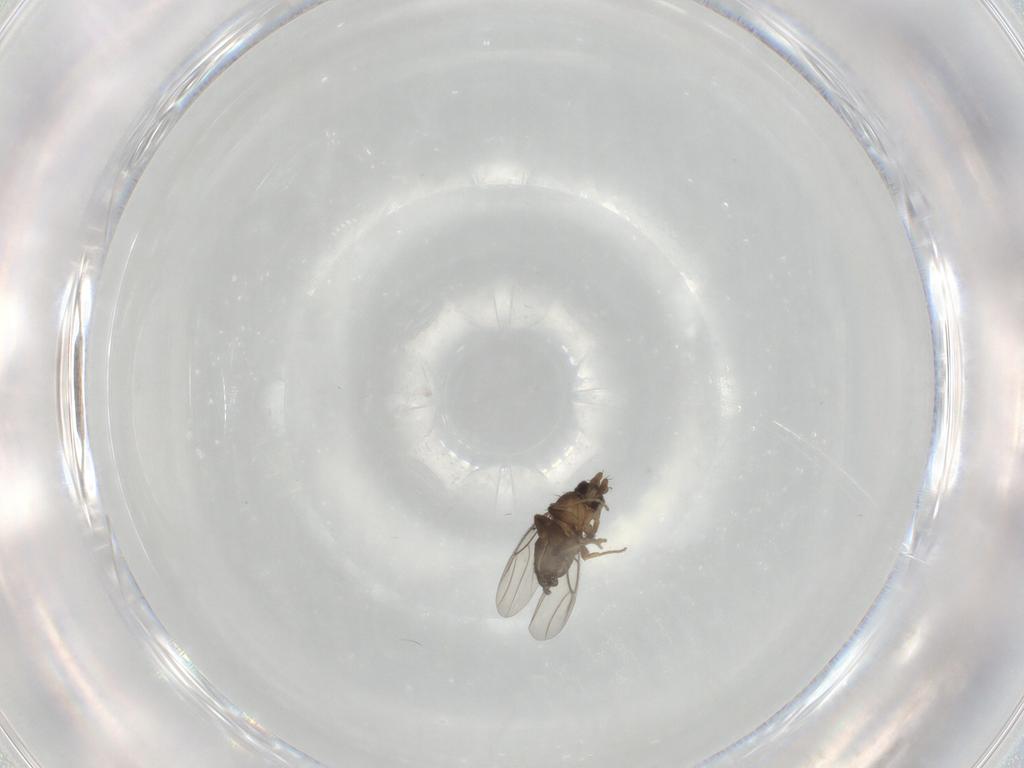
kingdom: Animalia
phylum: Arthropoda
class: Insecta
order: Diptera
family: Phoridae
